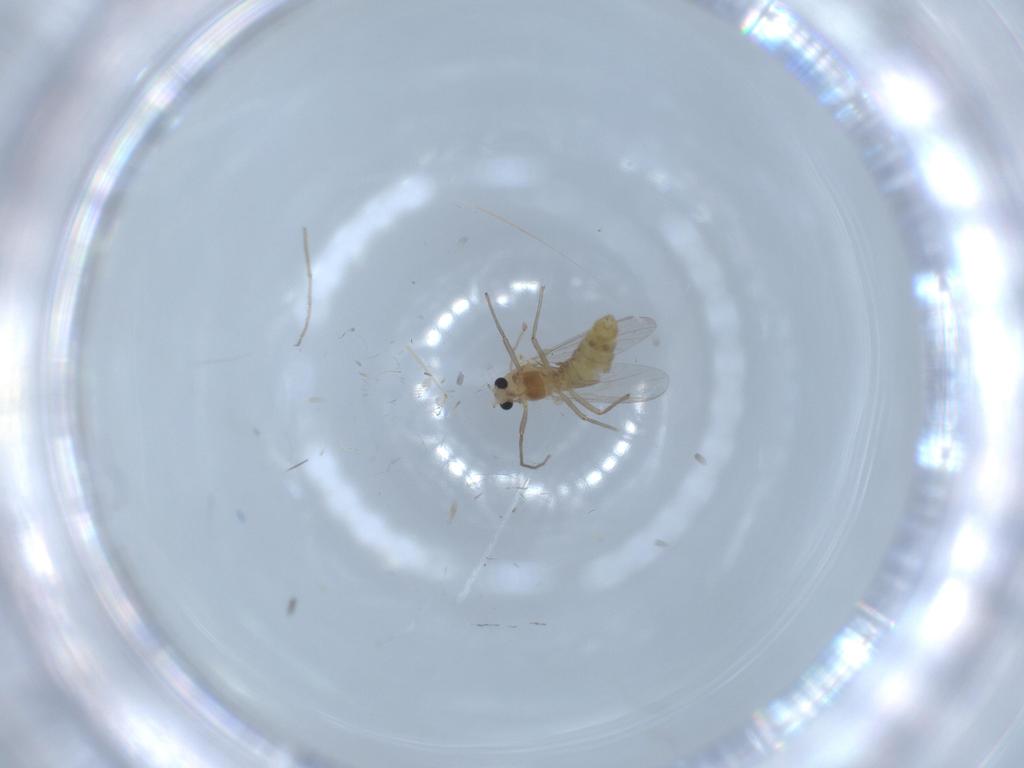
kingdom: Animalia
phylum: Arthropoda
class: Insecta
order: Diptera
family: Chironomidae
